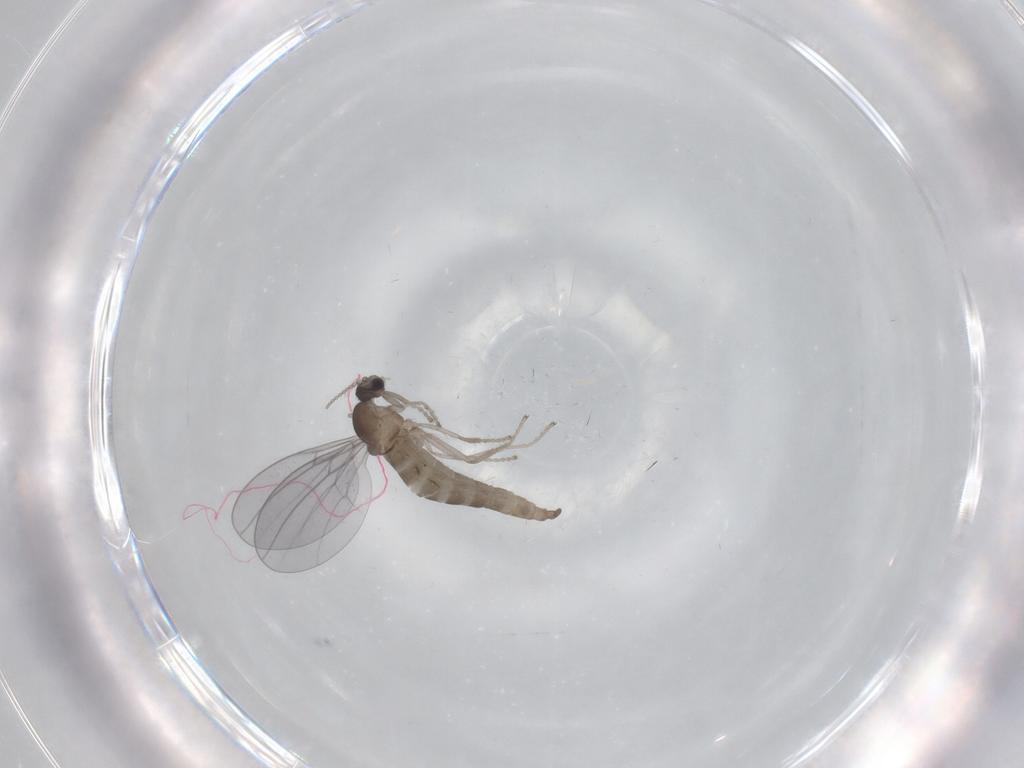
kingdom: Animalia
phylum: Arthropoda
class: Insecta
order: Diptera
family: Cecidomyiidae
